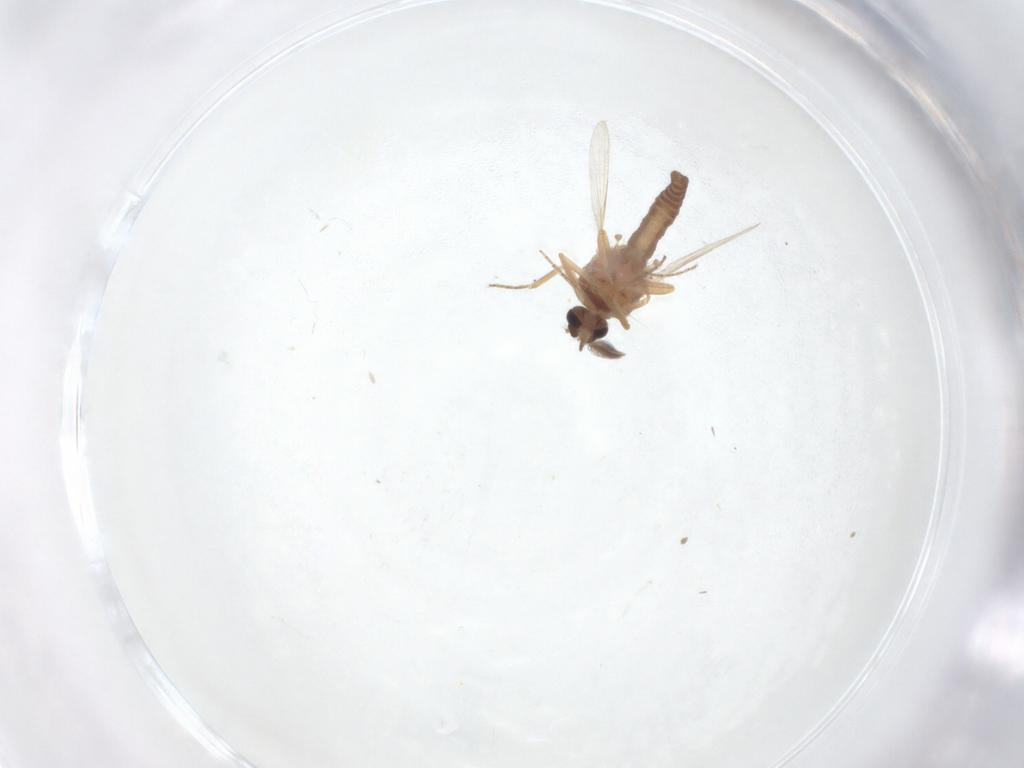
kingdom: Animalia
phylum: Arthropoda
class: Insecta
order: Diptera
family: Ceratopogonidae
